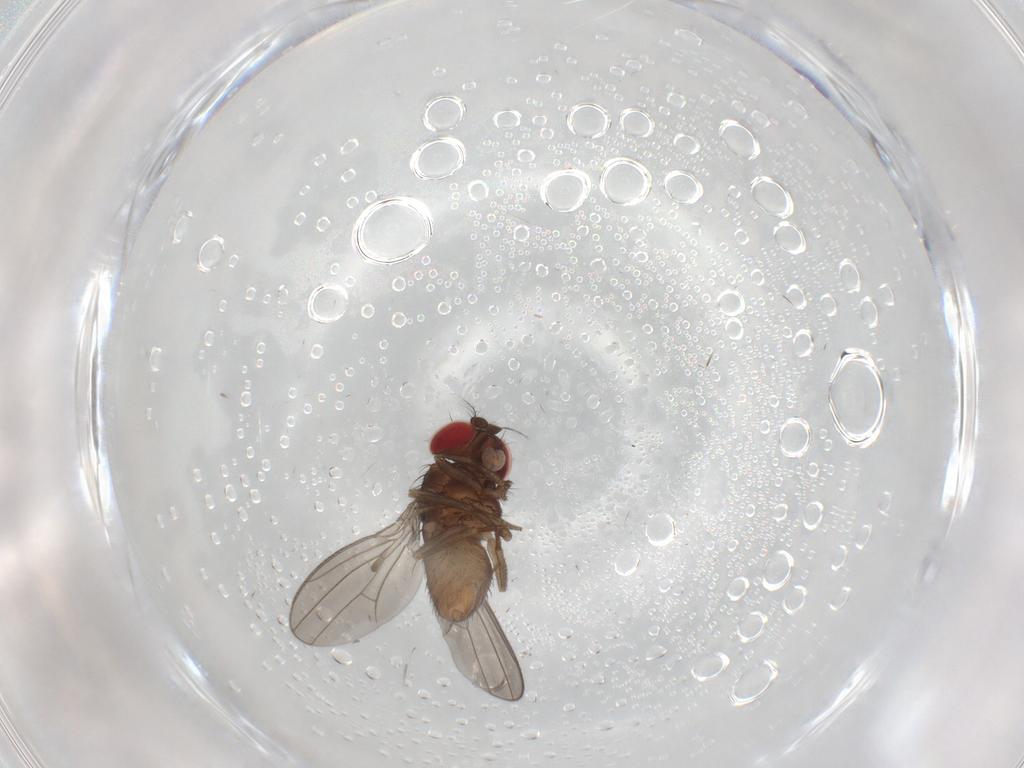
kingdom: Animalia
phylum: Arthropoda
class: Insecta
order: Diptera
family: Drosophilidae
